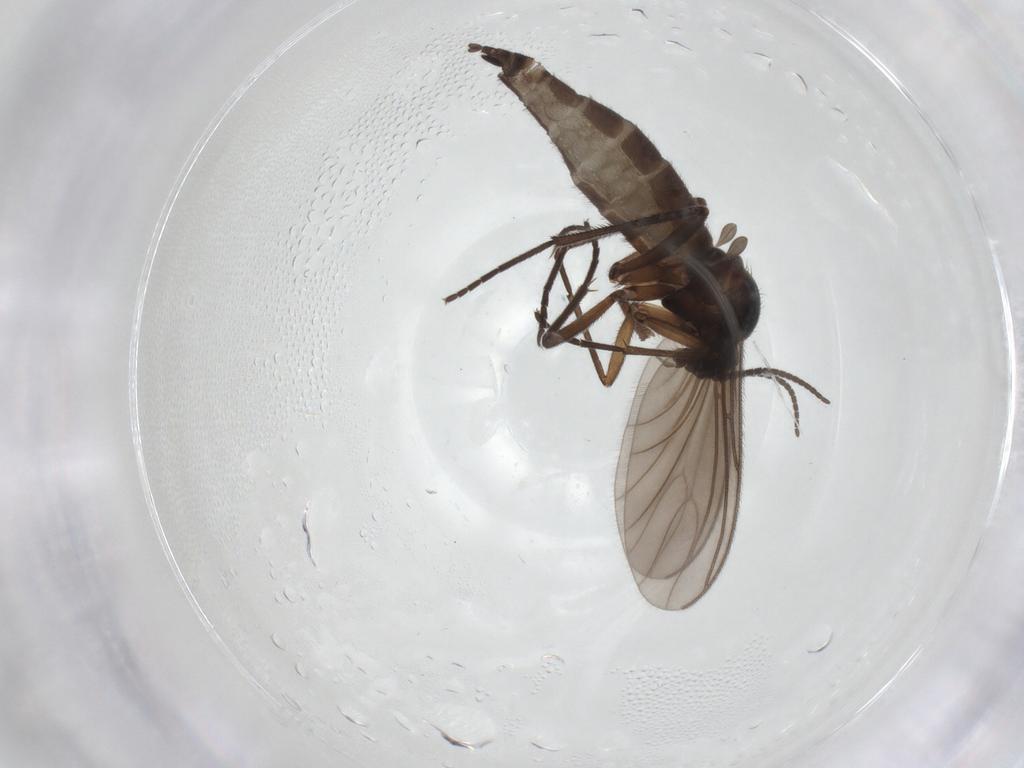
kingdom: Animalia
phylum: Arthropoda
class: Insecta
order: Diptera
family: Sciaridae
